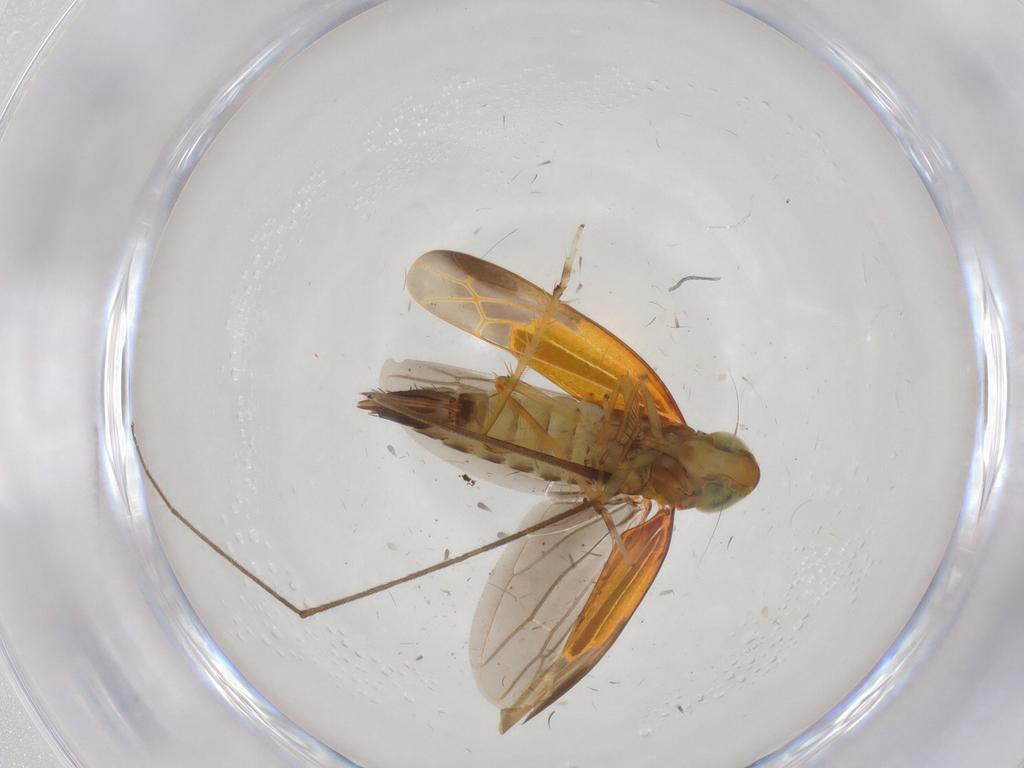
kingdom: Animalia
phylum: Arthropoda
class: Insecta
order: Hemiptera
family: Cicadellidae
